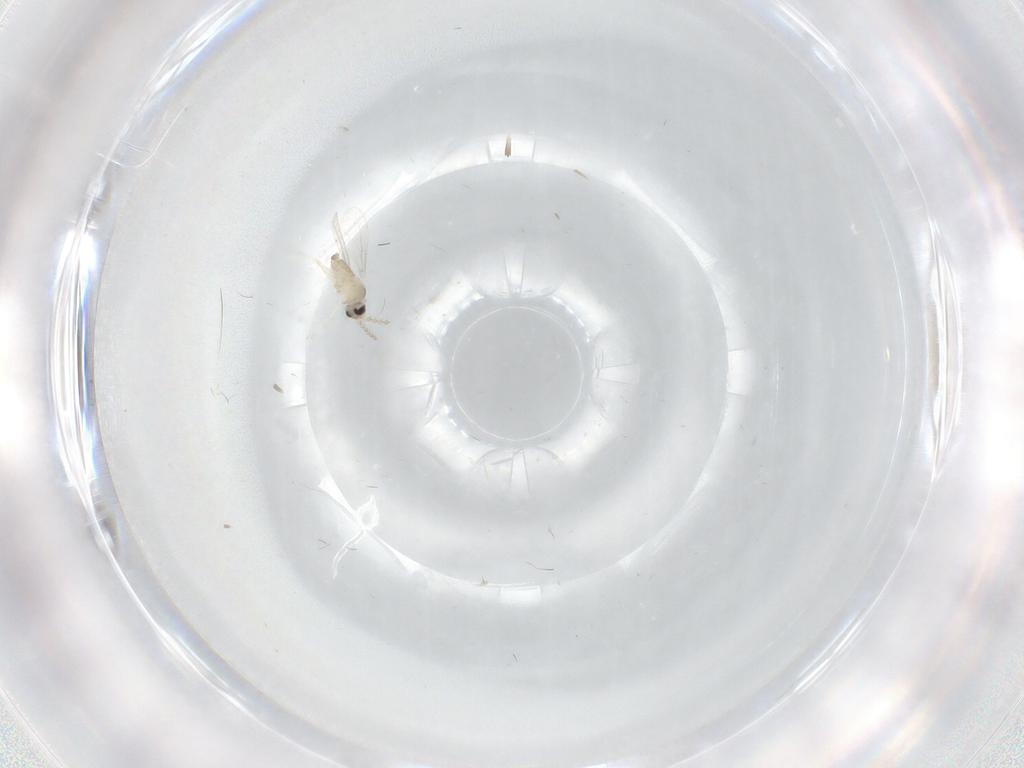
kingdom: Animalia
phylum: Arthropoda
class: Insecta
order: Diptera
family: Cecidomyiidae
